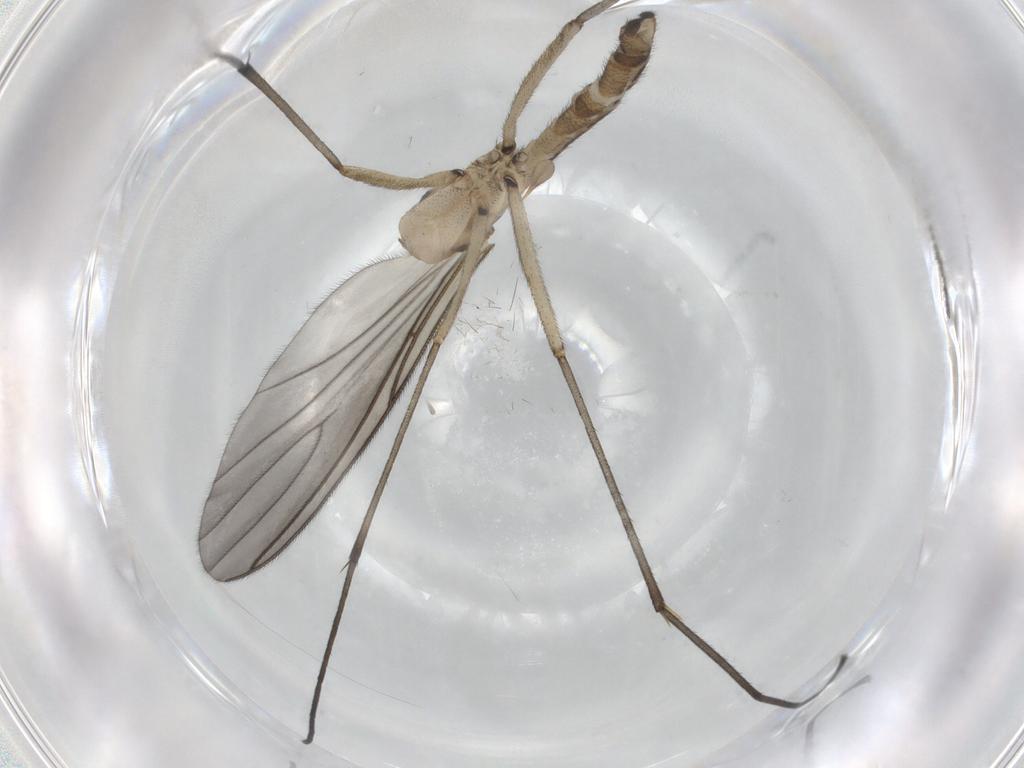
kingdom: Animalia
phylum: Arthropoda
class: Insecta
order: Diptera
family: Sciaridae
